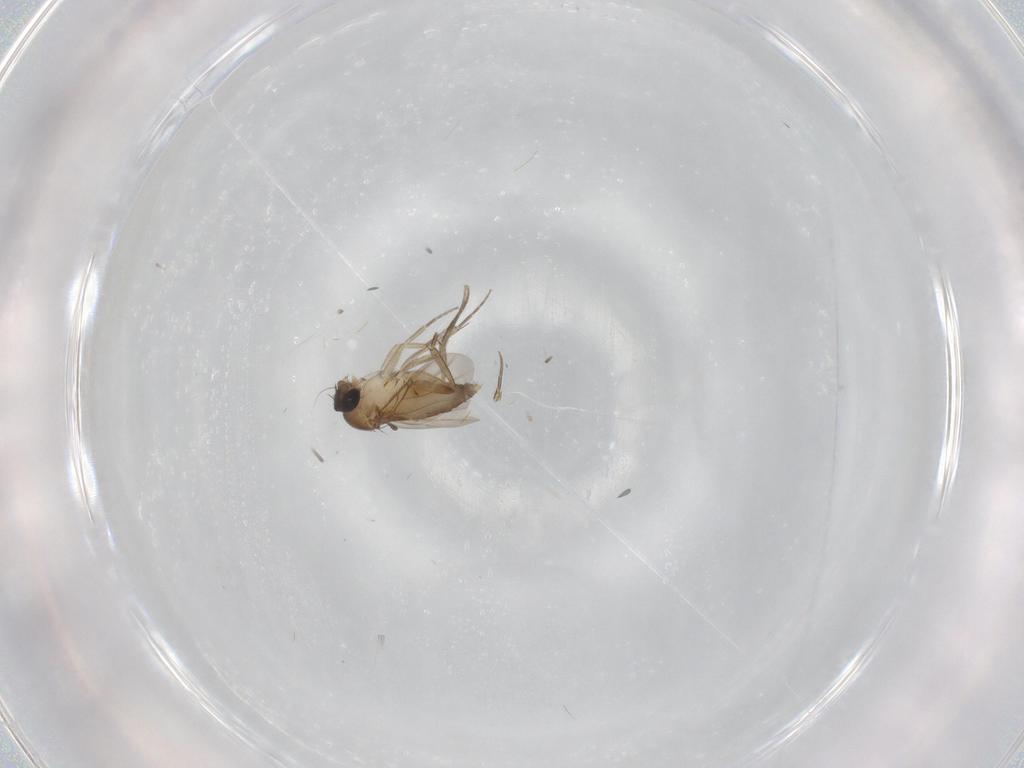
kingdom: Animalia
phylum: Arthropoda
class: Insecta
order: Diptera
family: Phoridae
